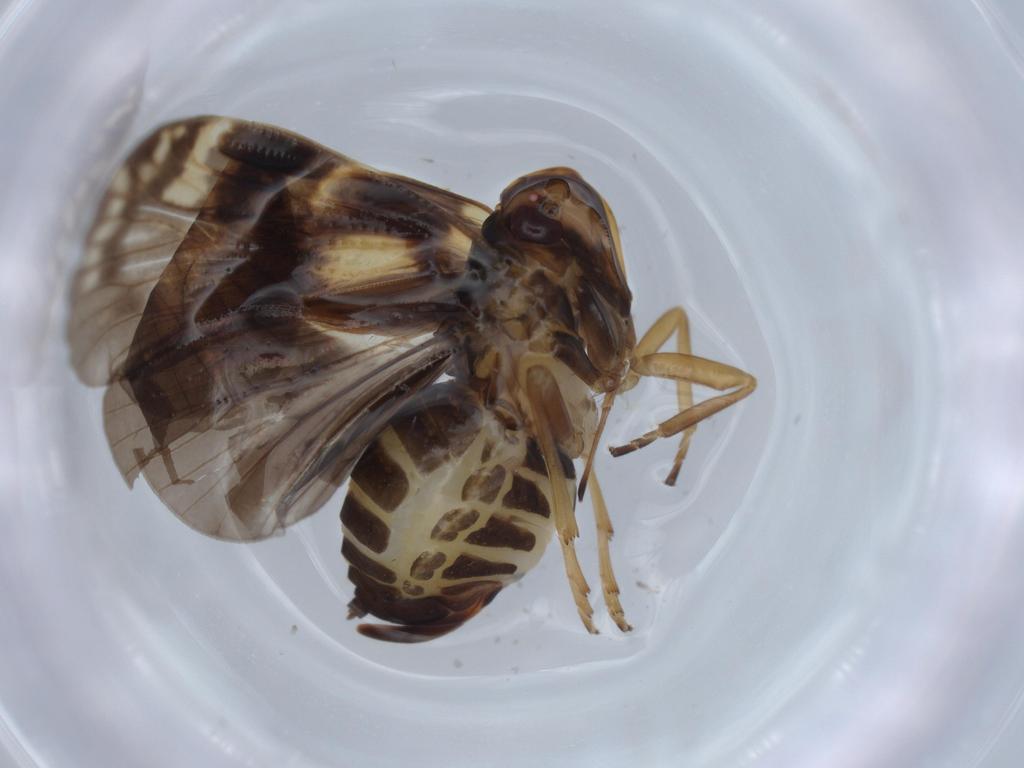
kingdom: Animalia
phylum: Arthropoda
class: Insecta
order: Hemiptera
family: Cixiidae
